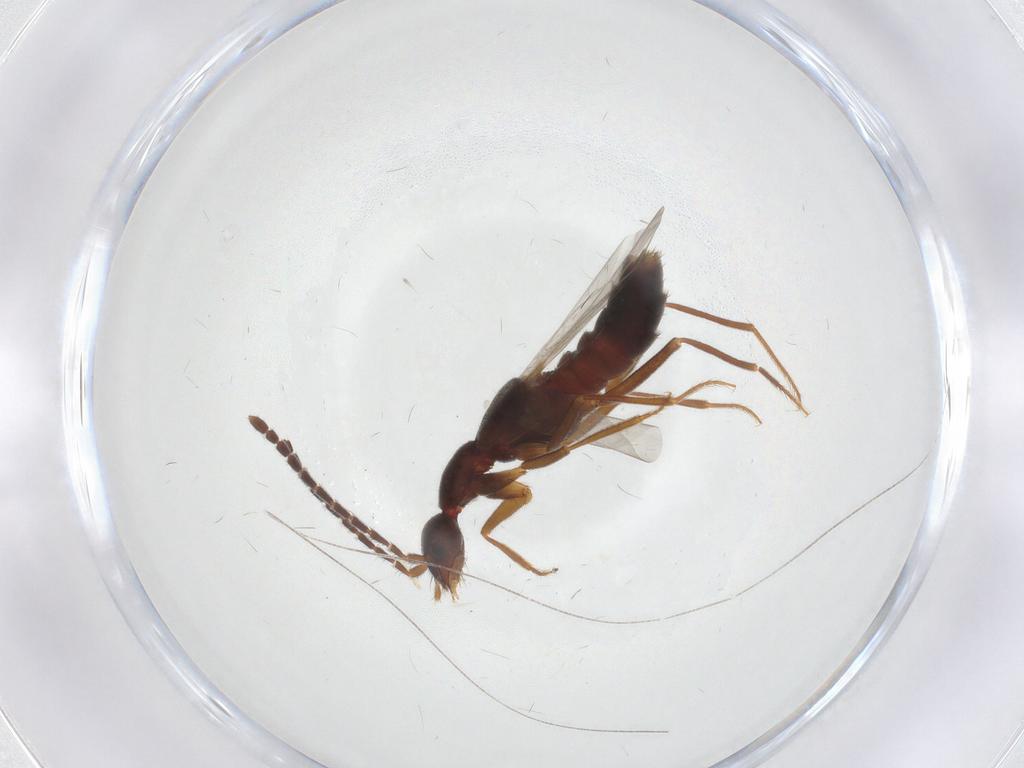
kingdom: Animalia
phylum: Arthropoda
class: Insecta
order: Coleoptera
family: Staphylinidae
